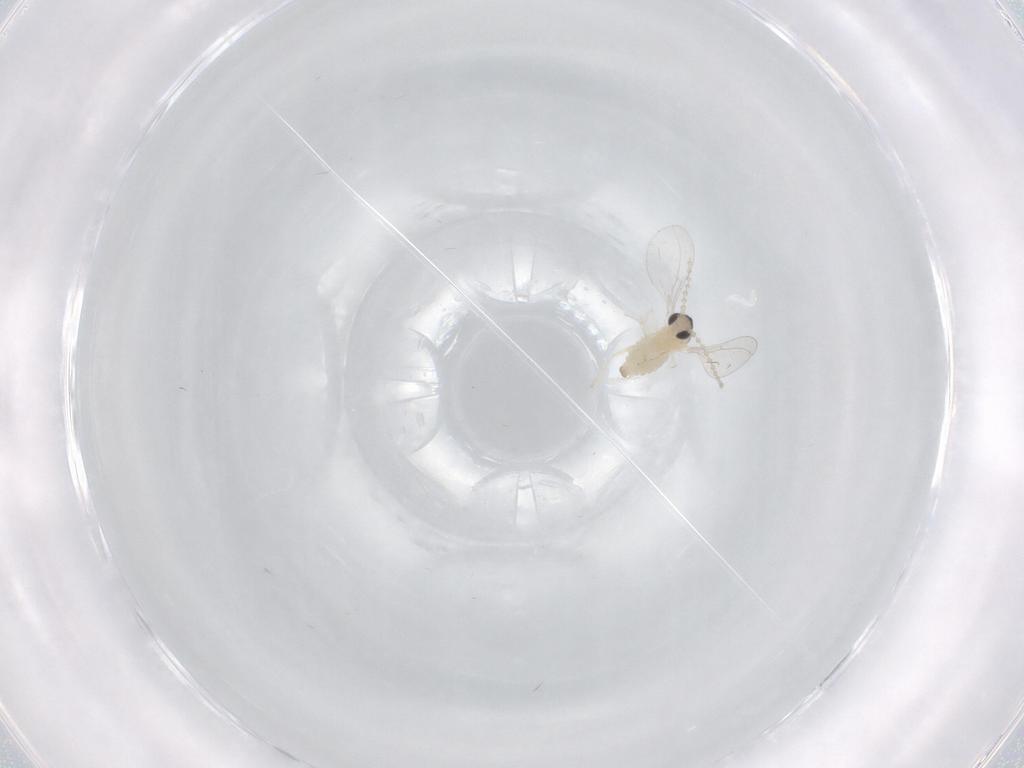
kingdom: Animalia
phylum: Arthropoda
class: Insecta
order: Diptera
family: Cecidomyiidae
